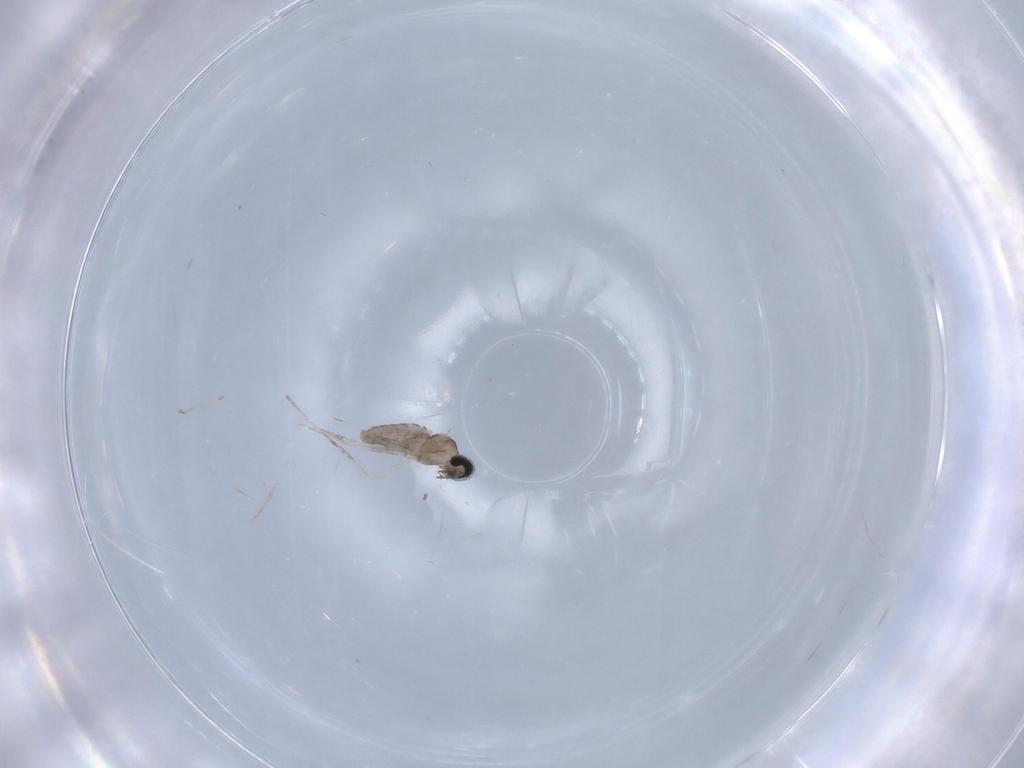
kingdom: Animalia
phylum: Arthropoda
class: Insecta
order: Diptera
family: Cecidomyiidae
